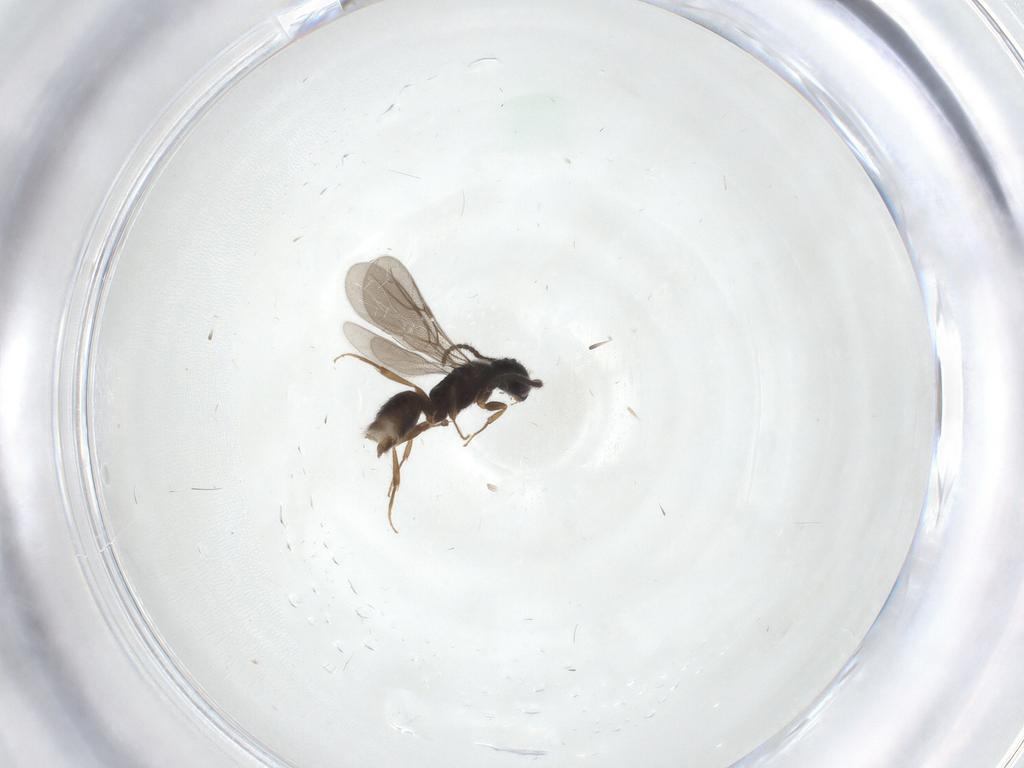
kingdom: Animalia
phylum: Arthropoda
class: Insecta
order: Hymenoptera
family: Bethylidae
